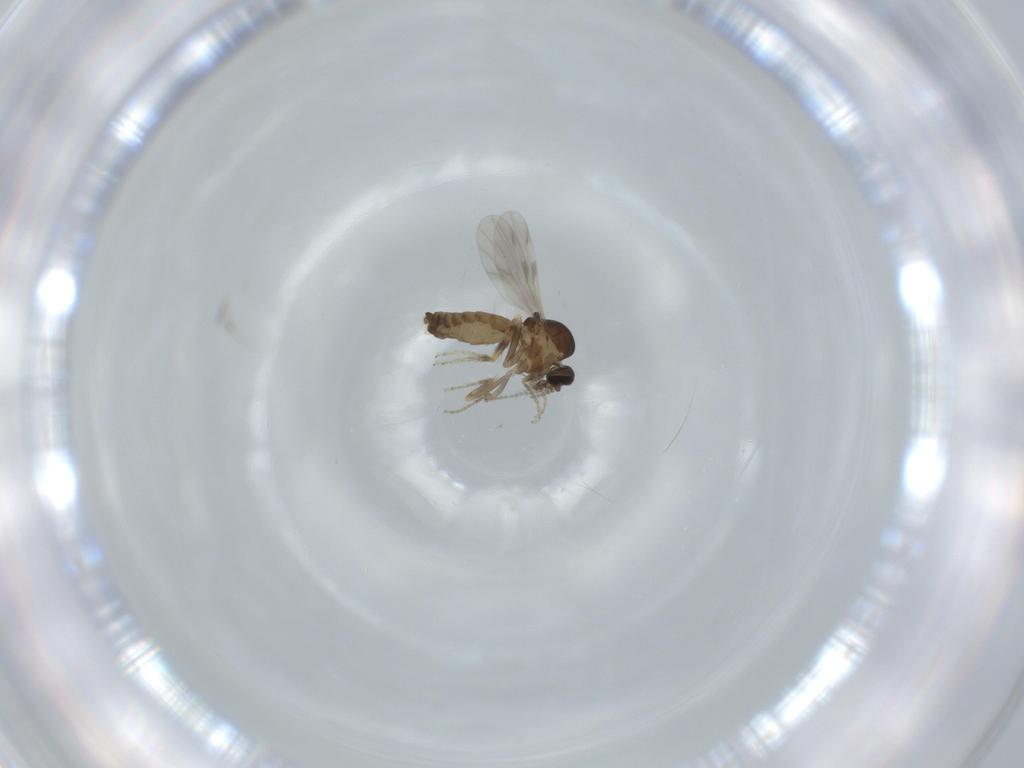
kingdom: Animalia
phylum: Arthropoda
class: Insecta
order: Diptera
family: Ceratopogonidae
